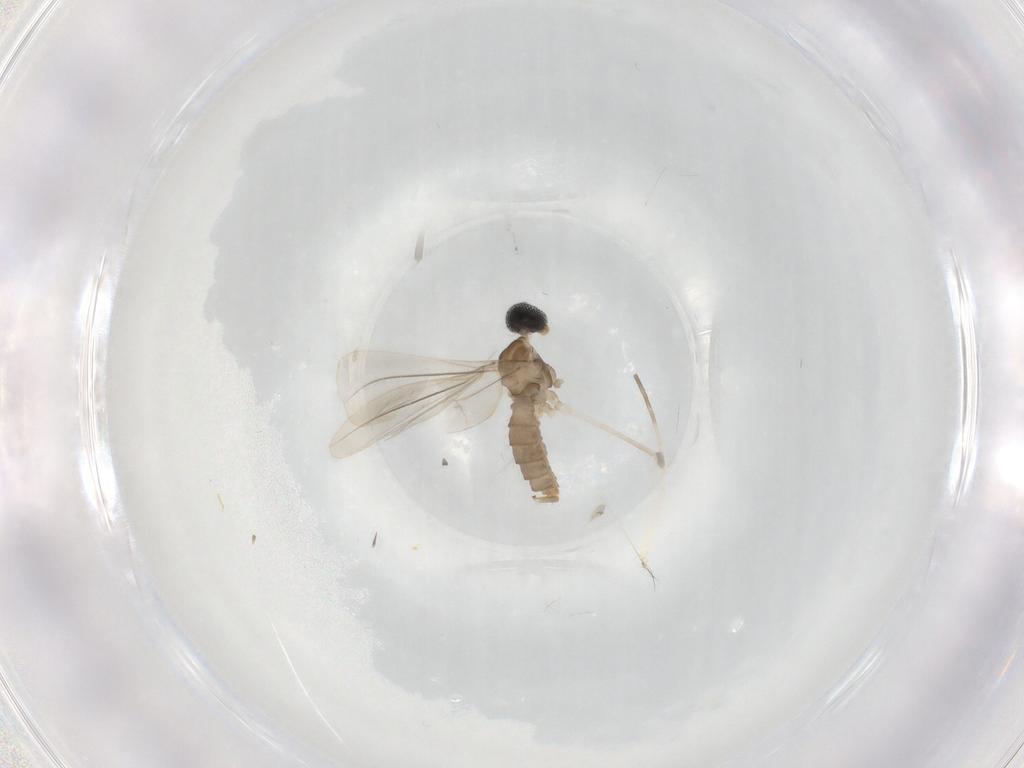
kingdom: Animalia
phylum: Arthropoda
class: Insecta
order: Diptera
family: Cecidomyiidae
